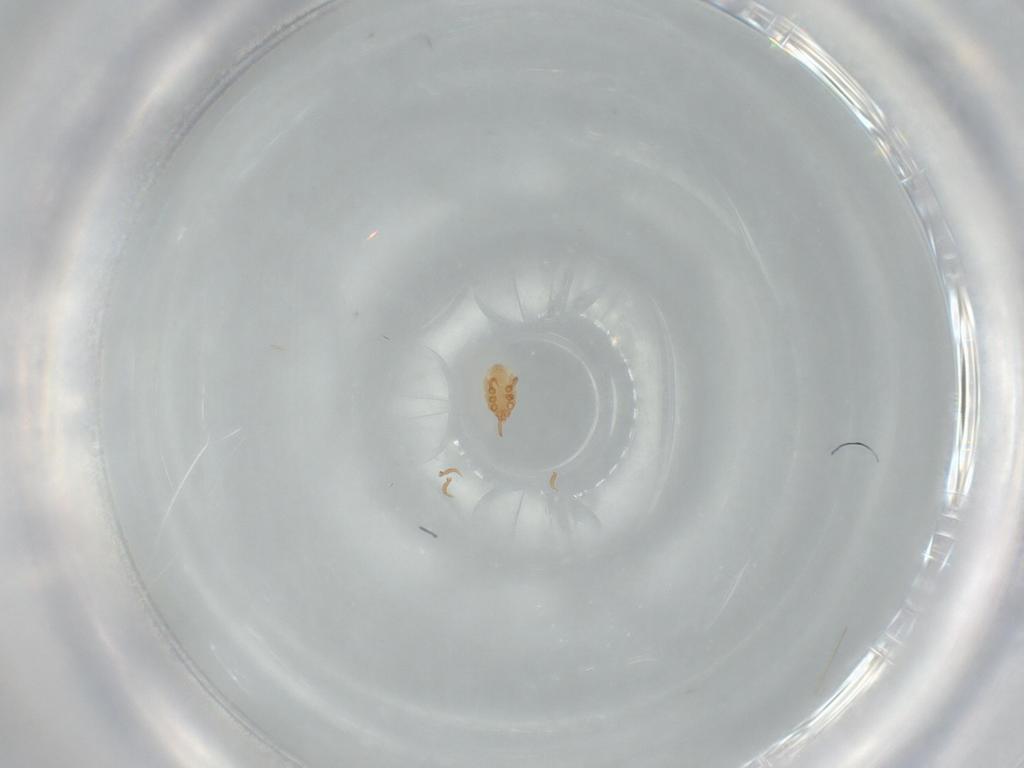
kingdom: Animalia
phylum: Arthropoda
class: Arachnida
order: Mesostigmata
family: Dinychidae
